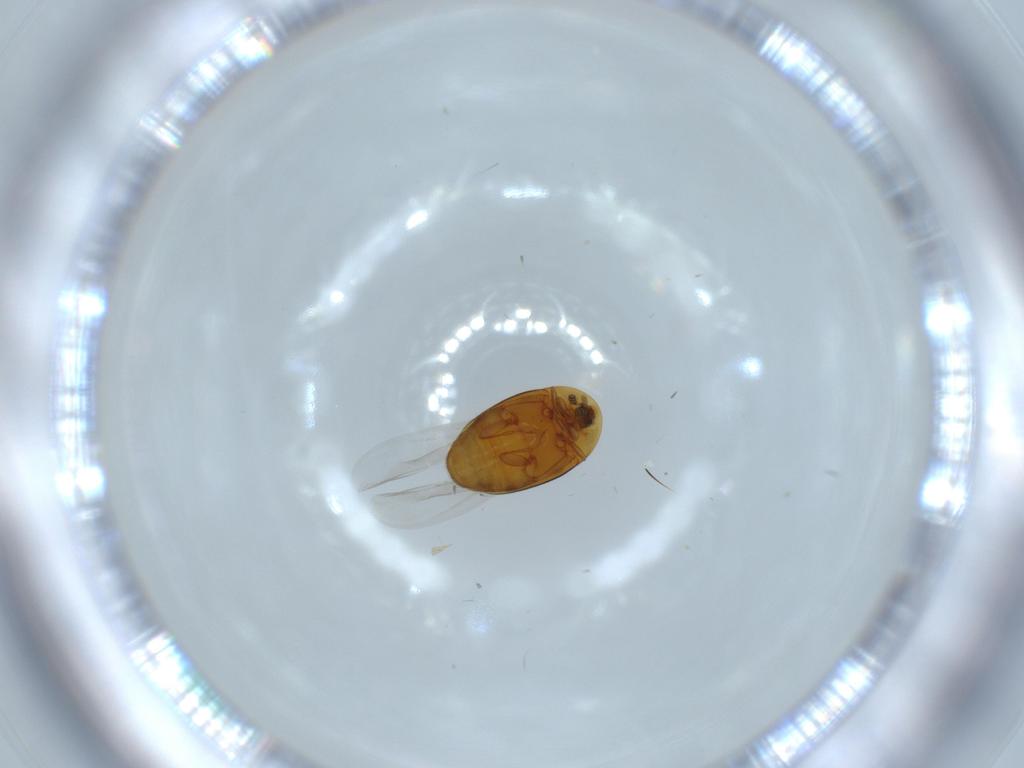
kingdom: Animalia
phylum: Arthropoda
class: Insecta
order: Coleoptera
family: Corylophidae
